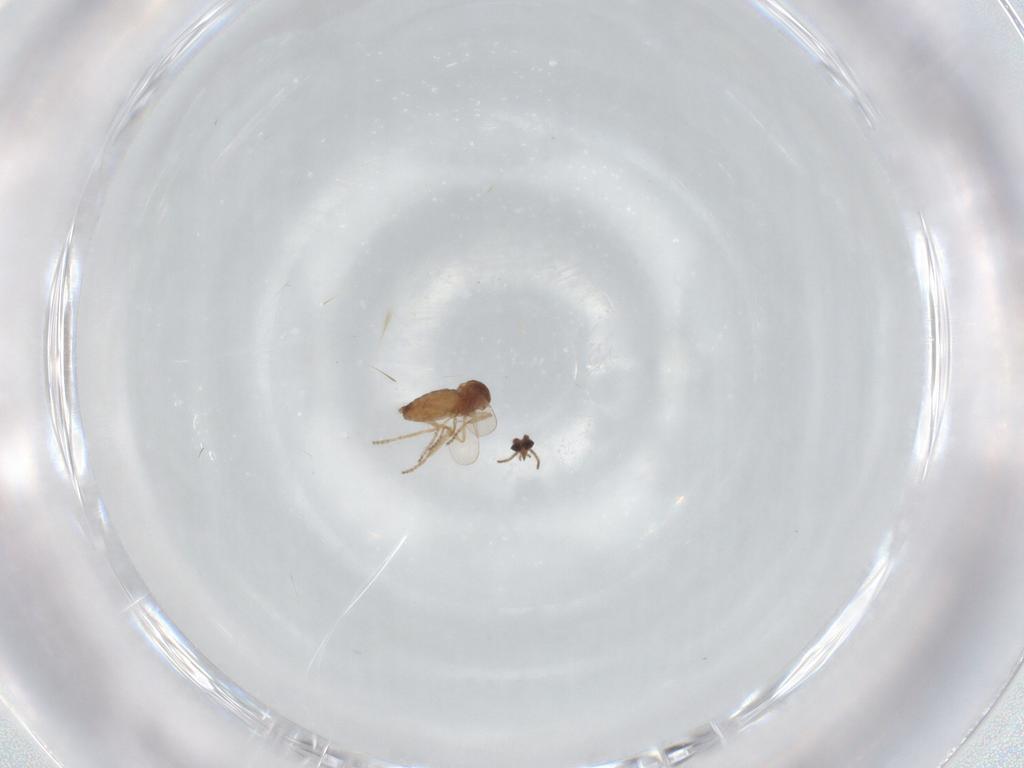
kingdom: Animalia
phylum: Arthropoda
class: Insecta
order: Diptera
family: Ceratopogonidae
